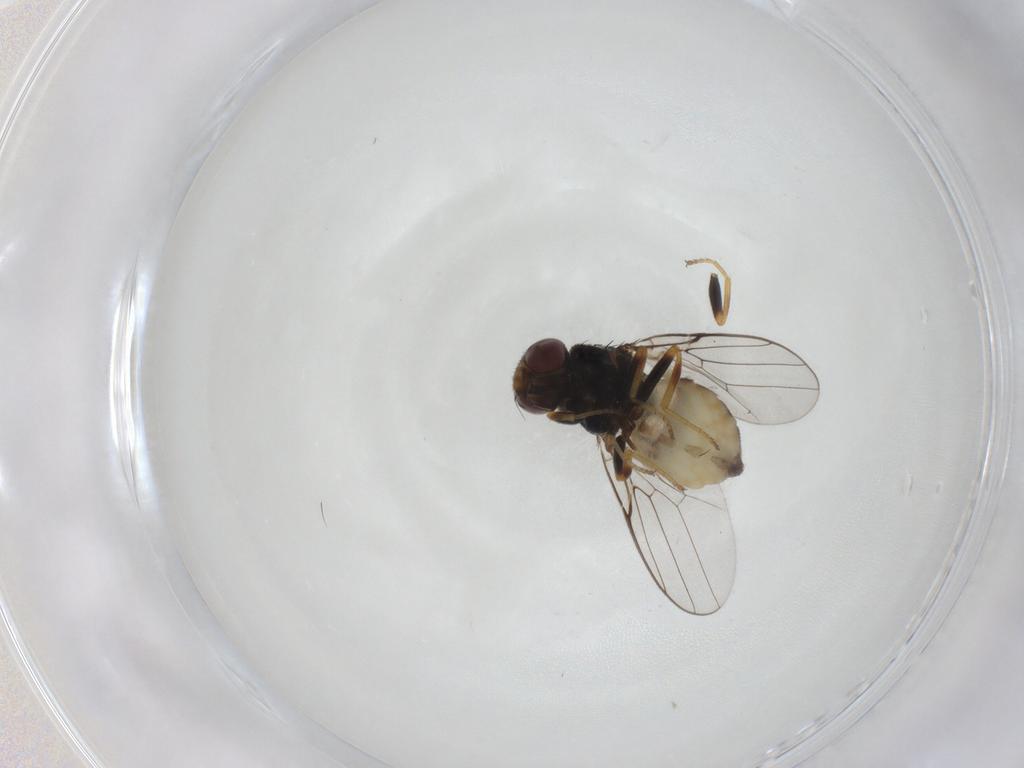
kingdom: Animalia
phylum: Arthropoda
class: Insecta
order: Diptera
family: Chloropidae
